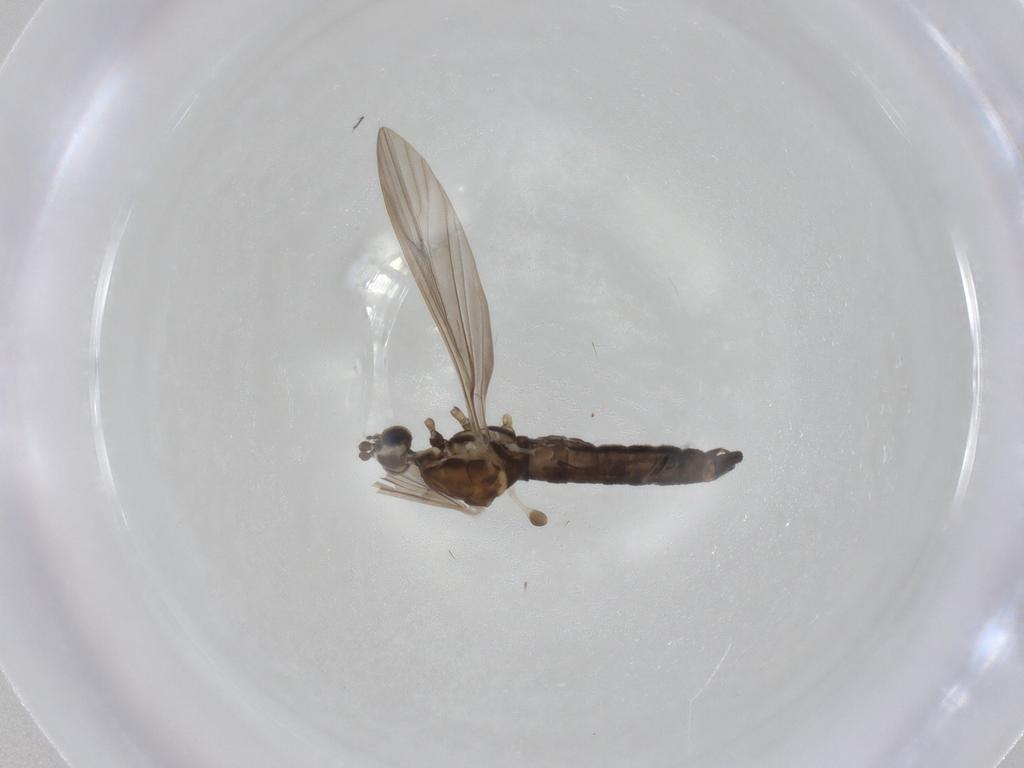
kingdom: Animalia
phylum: Arthropoda
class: Insecta
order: Diptera
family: Limoniidae
